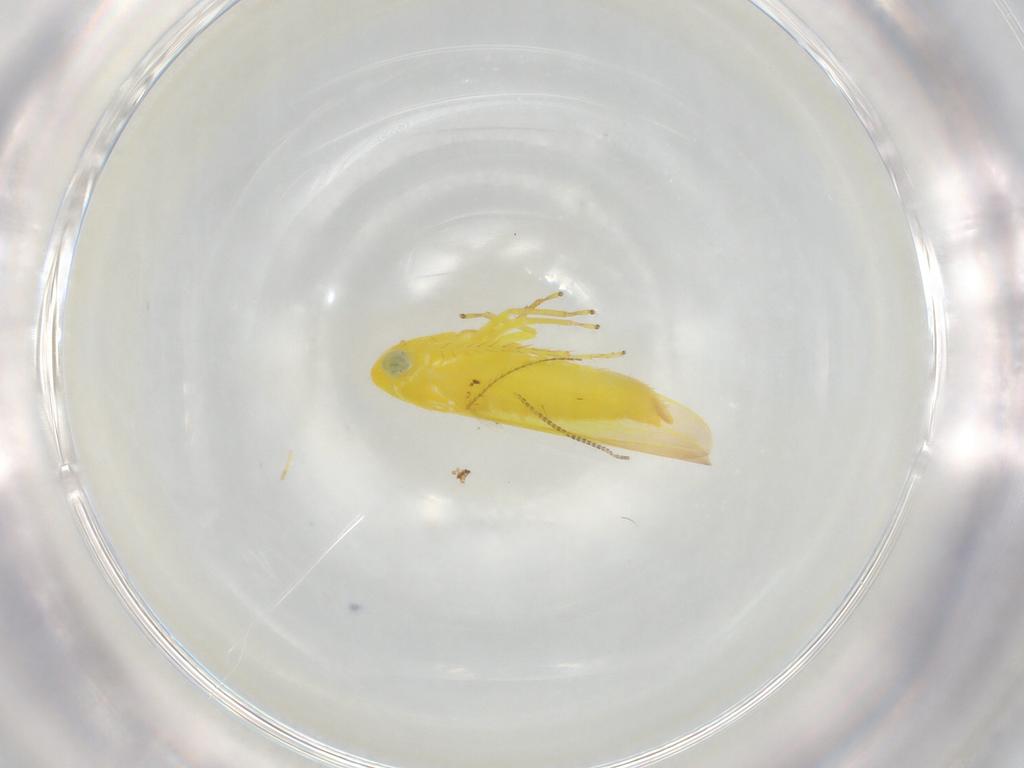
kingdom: Animalia
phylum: Arthropoda
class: Insecta
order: Hemiptera
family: Cicadellidae
